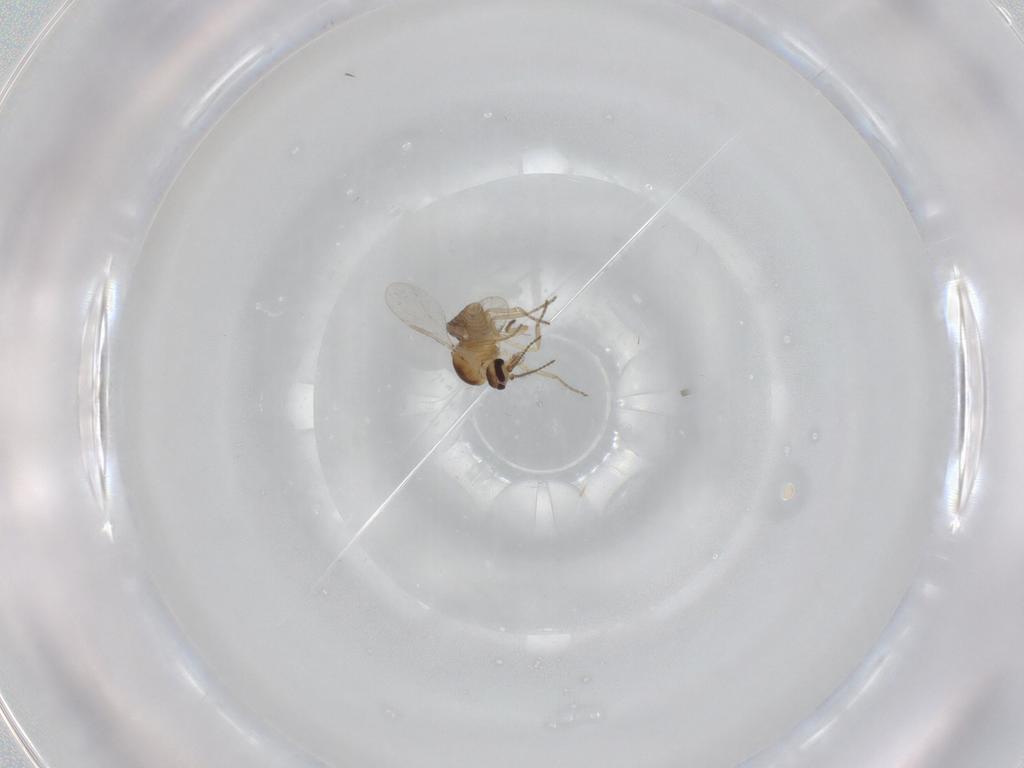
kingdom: Animalia
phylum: Arthropoda
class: Insecta
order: Diptera
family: Ceratopogonidae
